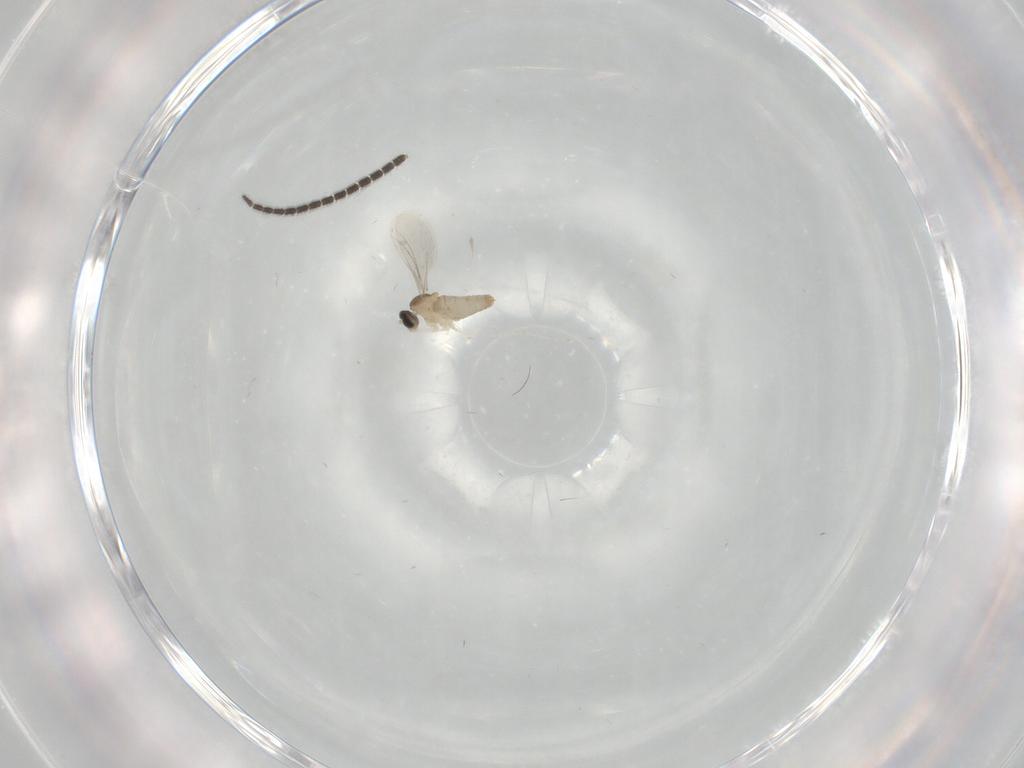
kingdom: Animalia
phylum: Arthropoda
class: Insecta
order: Diptera
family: Cecidomyiidae
